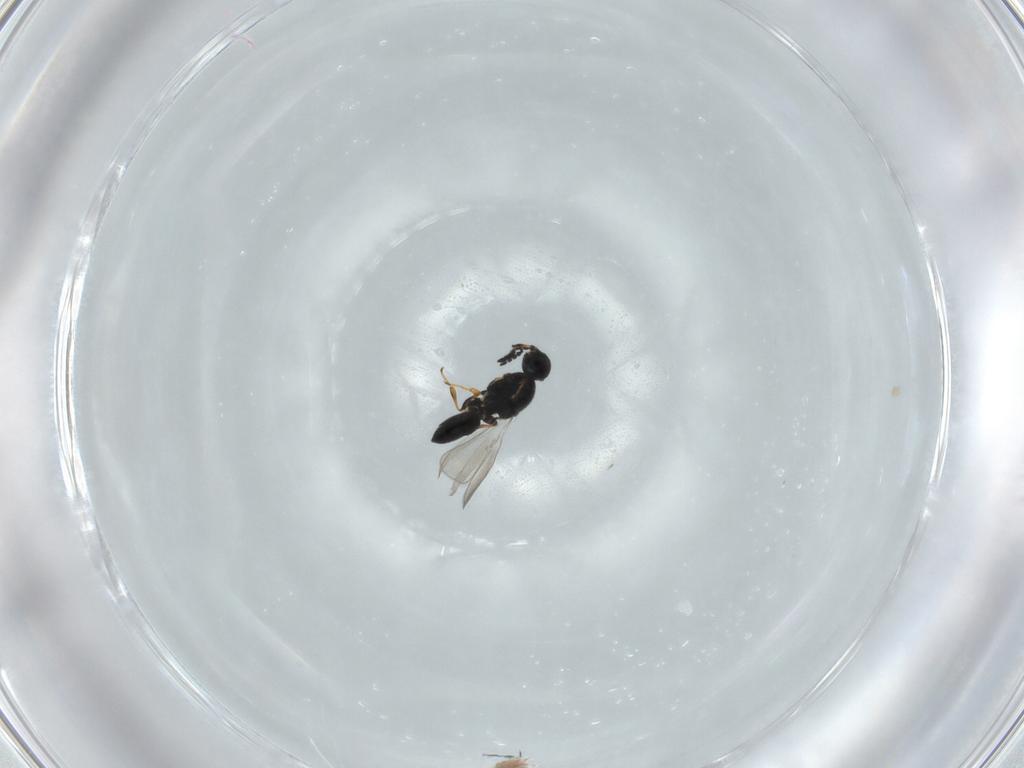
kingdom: Animalia
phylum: Arthropoda
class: Insecta
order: Hymenoptera
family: Platygastridae
